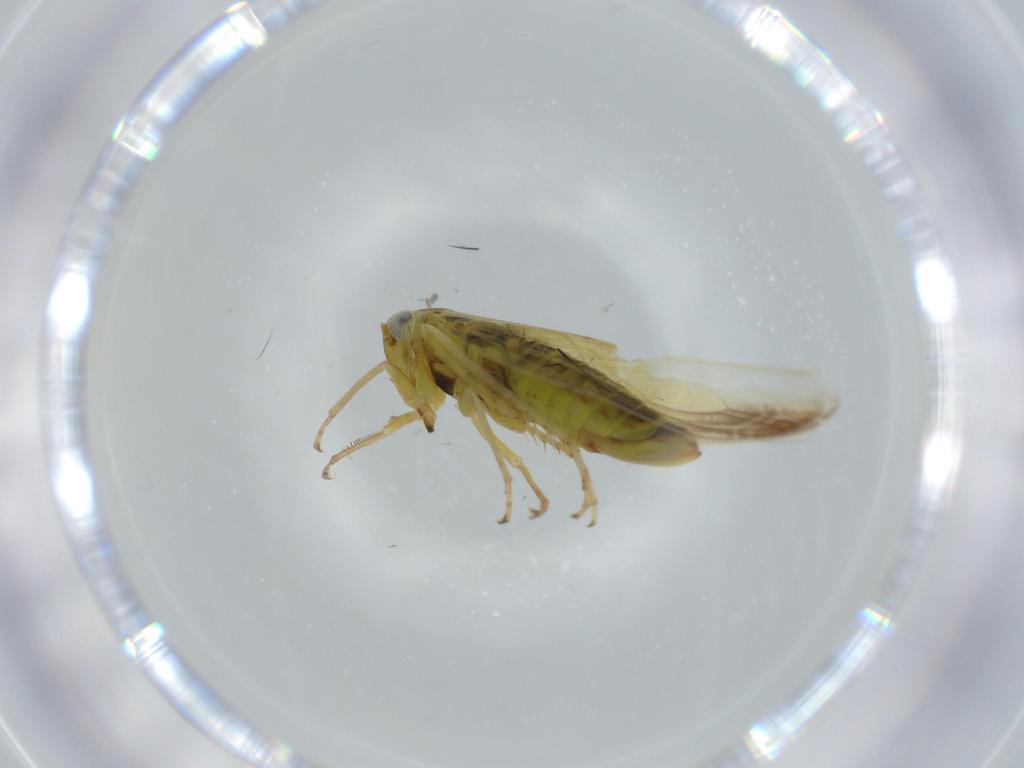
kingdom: Animalia
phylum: Arthropoda
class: Insecta
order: Hemiptera
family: Cicadellidae
